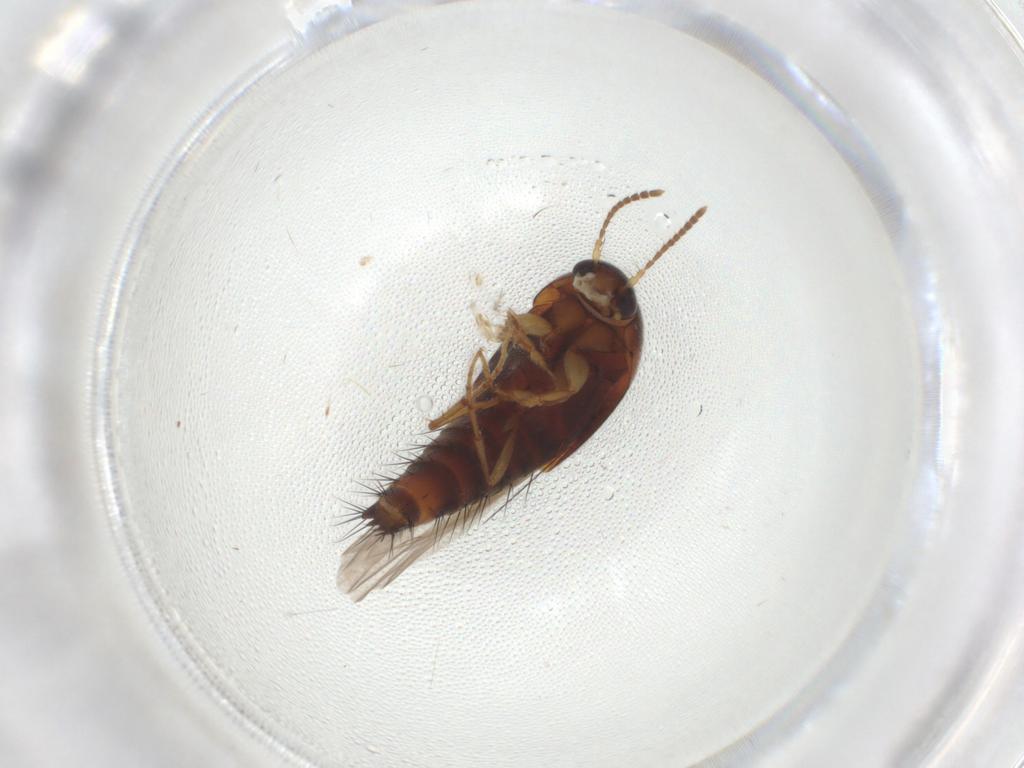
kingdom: Animalia
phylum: Arthropoda
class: Insecta
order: Coleoptera
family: Staphylinidae
